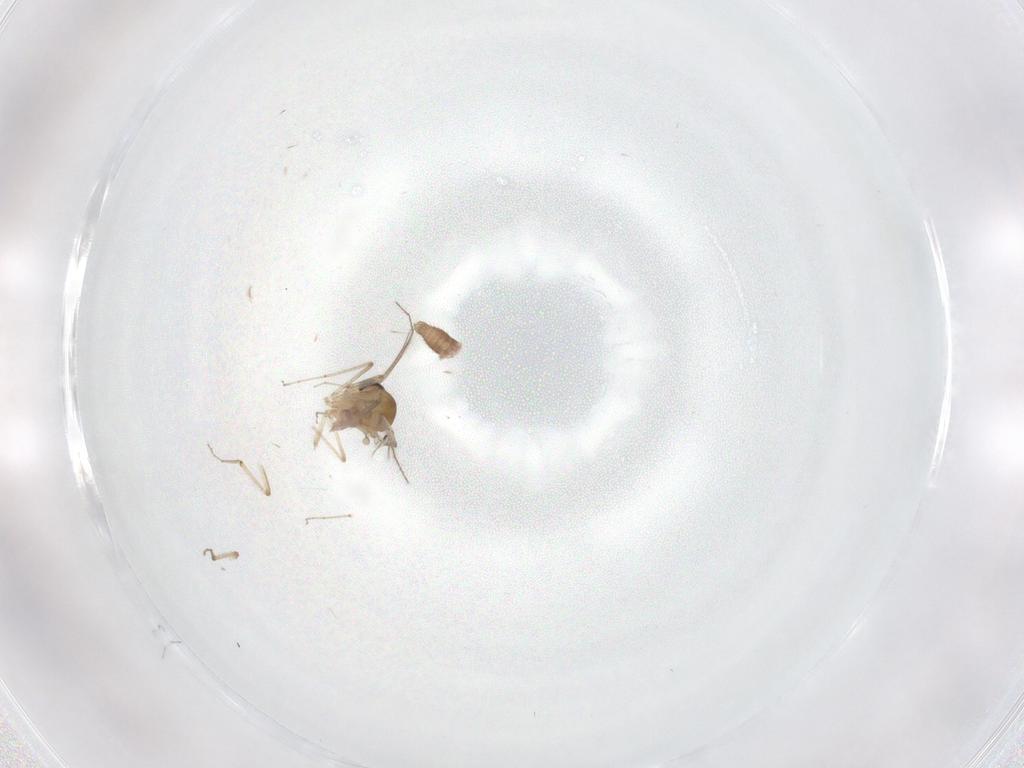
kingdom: Animalia
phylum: Arthropoda
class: Insecta
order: Diptera
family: Ceratopogonidae
